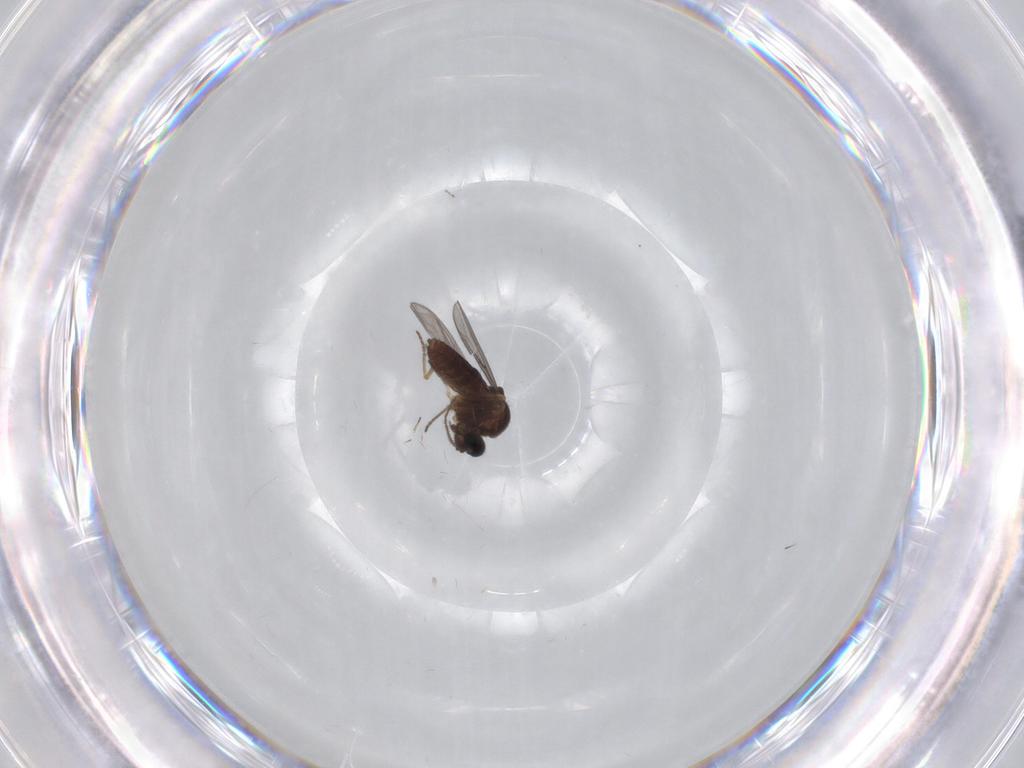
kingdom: Animalia
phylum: Arthropoda
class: Insecta
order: Diptera
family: Ceratopogonidae
